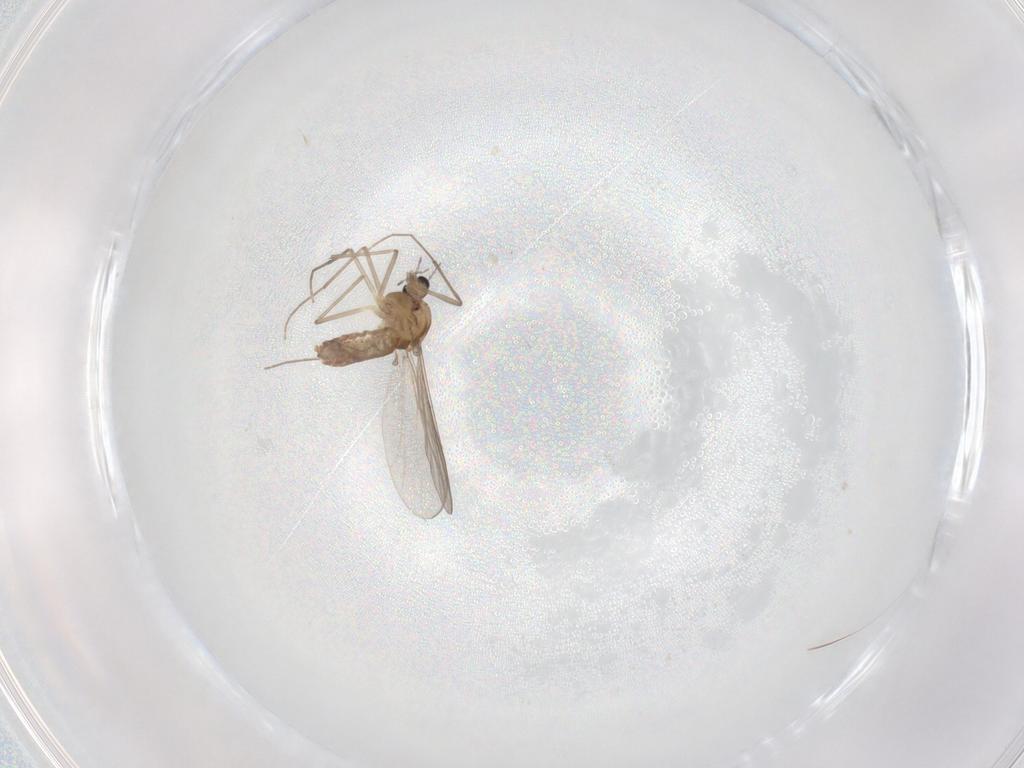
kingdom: Animalia
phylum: Arthropoda
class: Insecta
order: Diptera
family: Chironomidae
